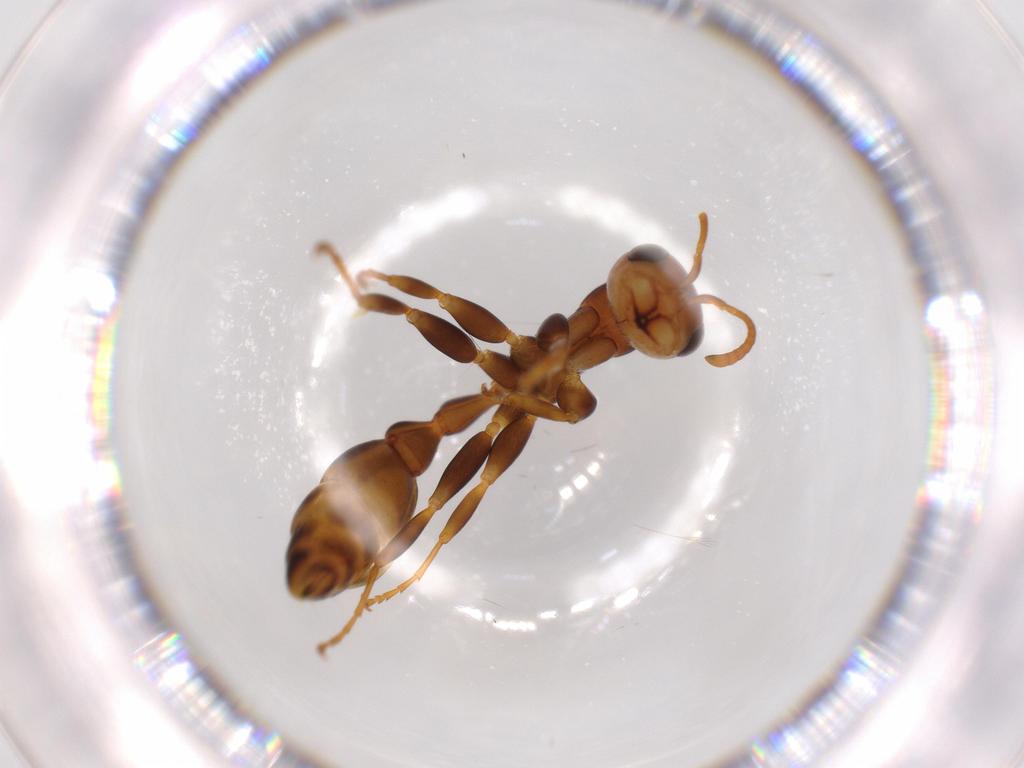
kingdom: Animalia
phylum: Arthropoda
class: Insecta
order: Hymenoptera
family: Formicidae
